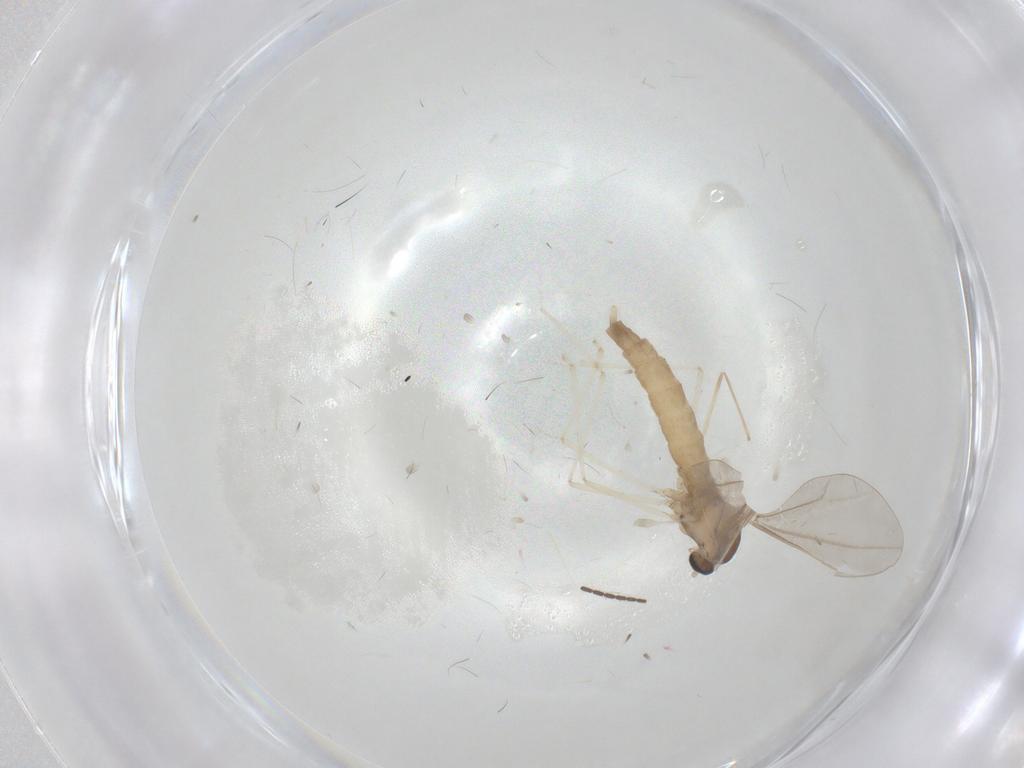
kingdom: Animalia
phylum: Arthropoda
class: Insecta
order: Diptera
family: Cecidomyiidae
